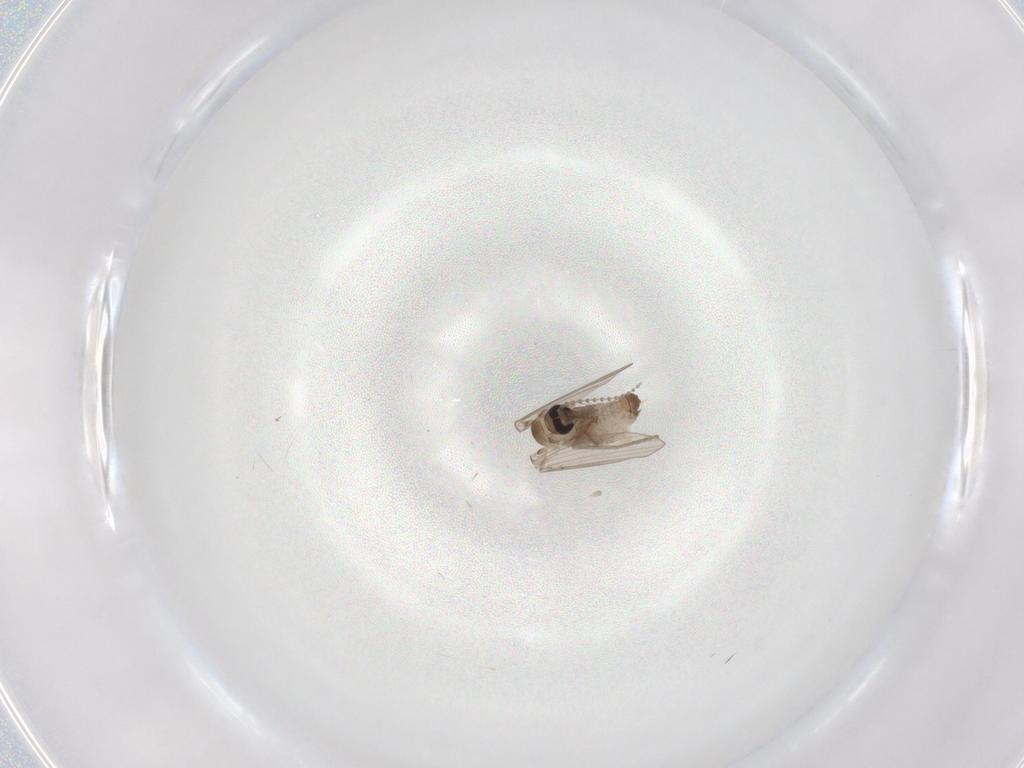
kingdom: Animalia
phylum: Arthropoda
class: Insecta
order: Diptera
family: Psychodidae
